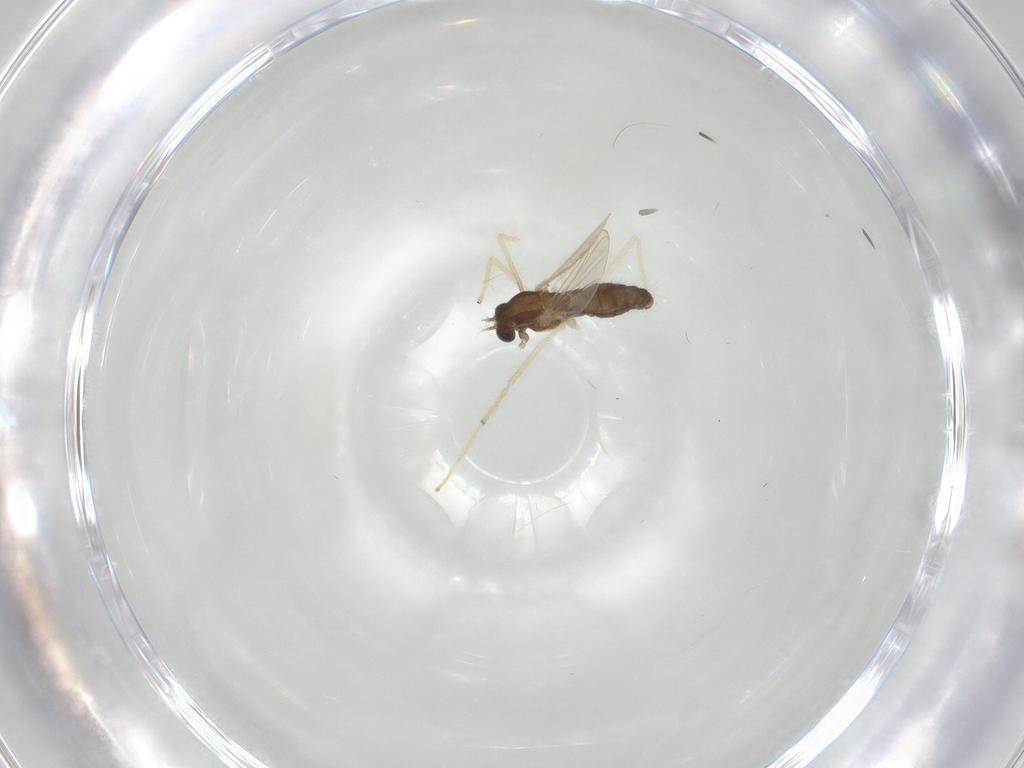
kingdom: Animalia
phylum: Arthropoda
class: Insecta
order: Diptera
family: Chironomidae
